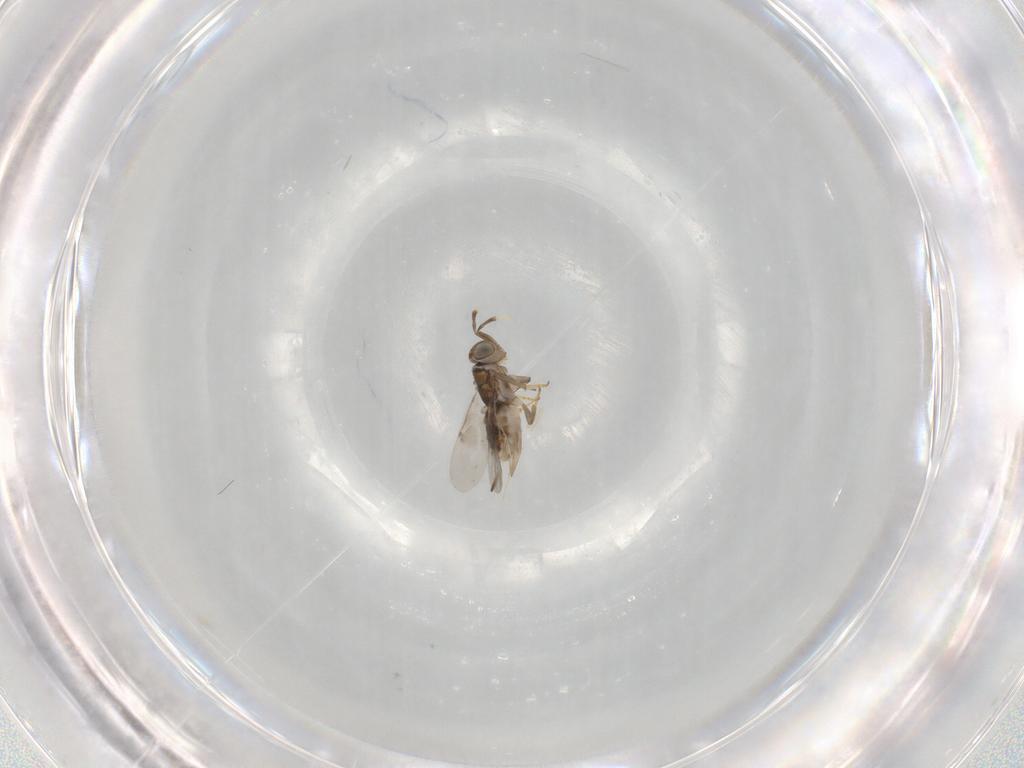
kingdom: Animalia
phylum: Arthropoda
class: Insecta
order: Hymenoptera
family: Encyrtidae
